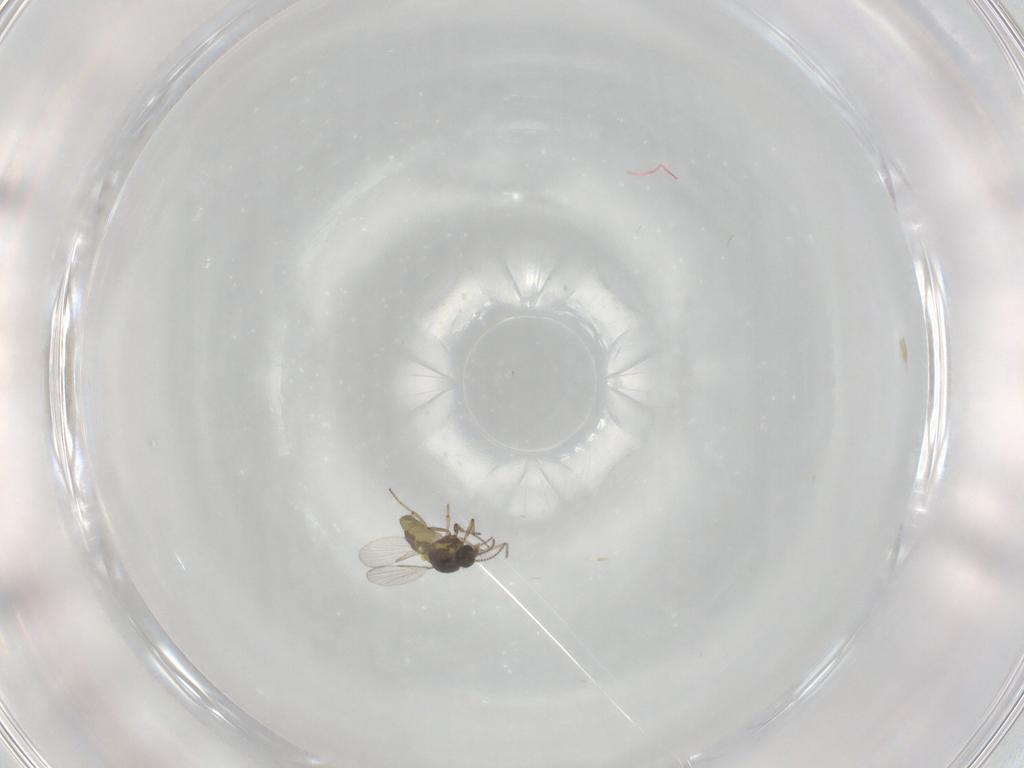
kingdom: Animalia
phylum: Arthropoda
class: Insecta
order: Diptera
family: Ceratopogonidae
